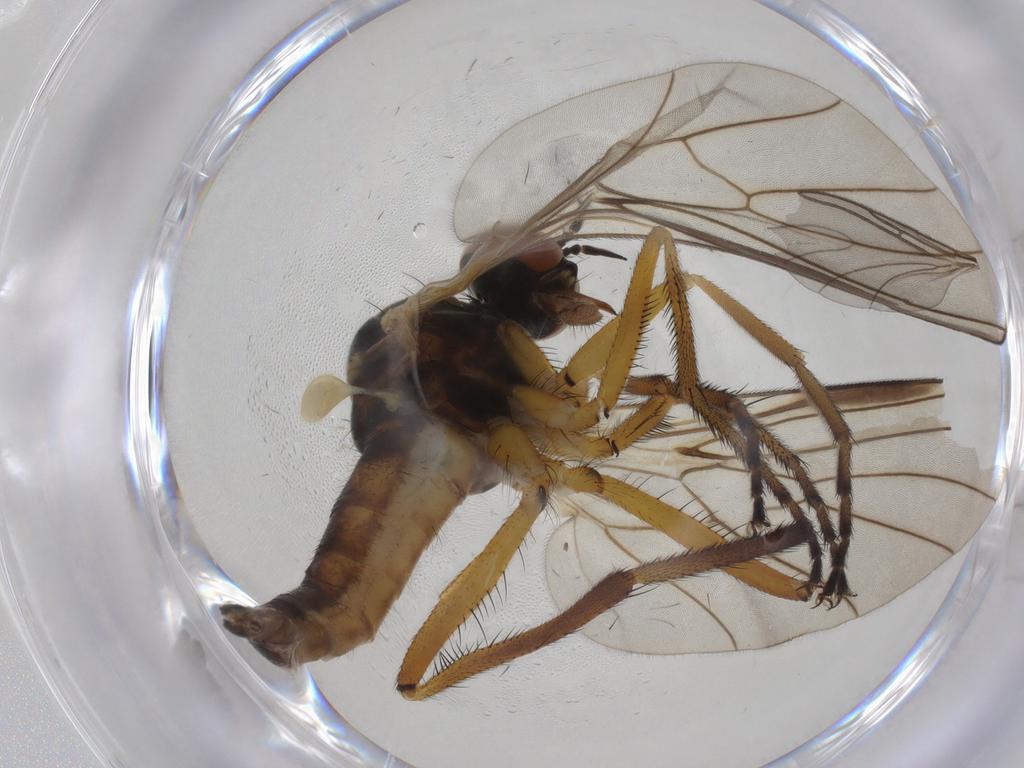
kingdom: Animalia
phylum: Arthropoda
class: Insecta
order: Diptera
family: Empididae
